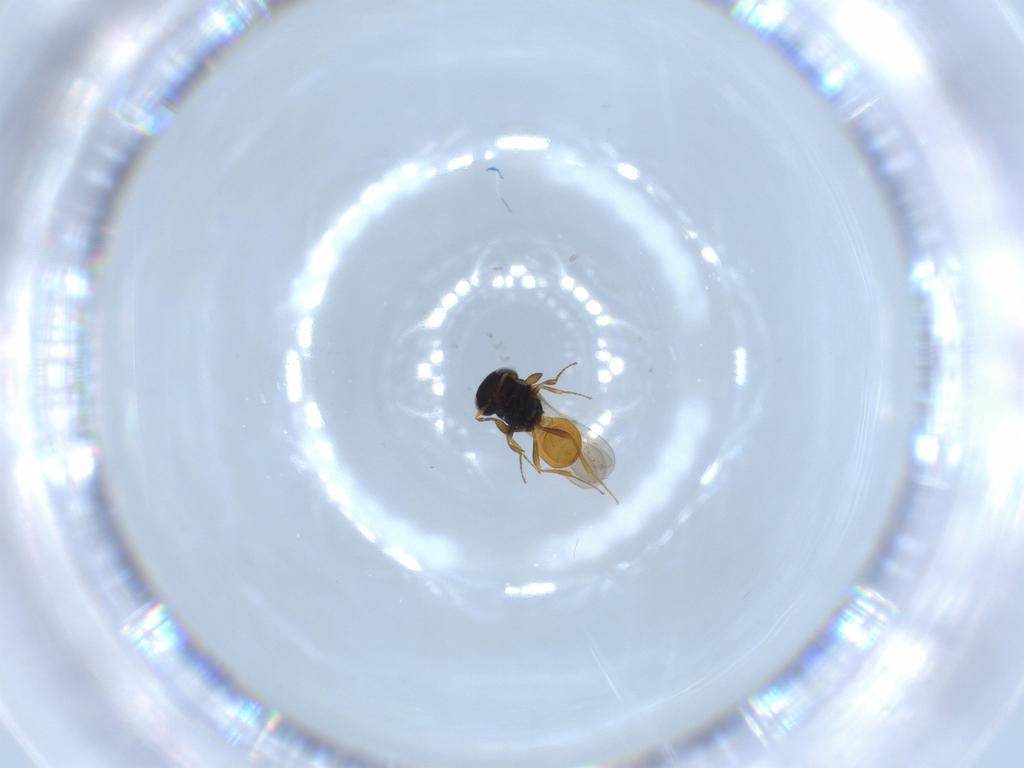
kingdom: Animalia
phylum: Arthropoda
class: Insecta
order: Hymenoptera
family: Scelionidae
